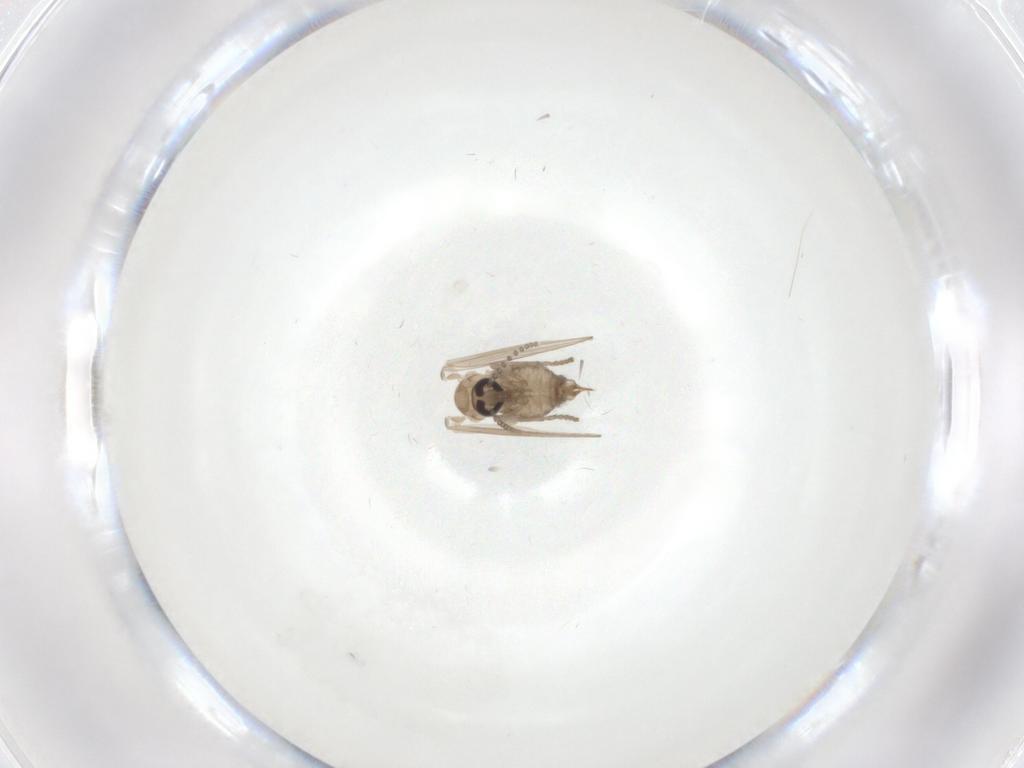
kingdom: Animalia
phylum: Arthropoda
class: Insecta
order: Diptera
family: Psychodidae
